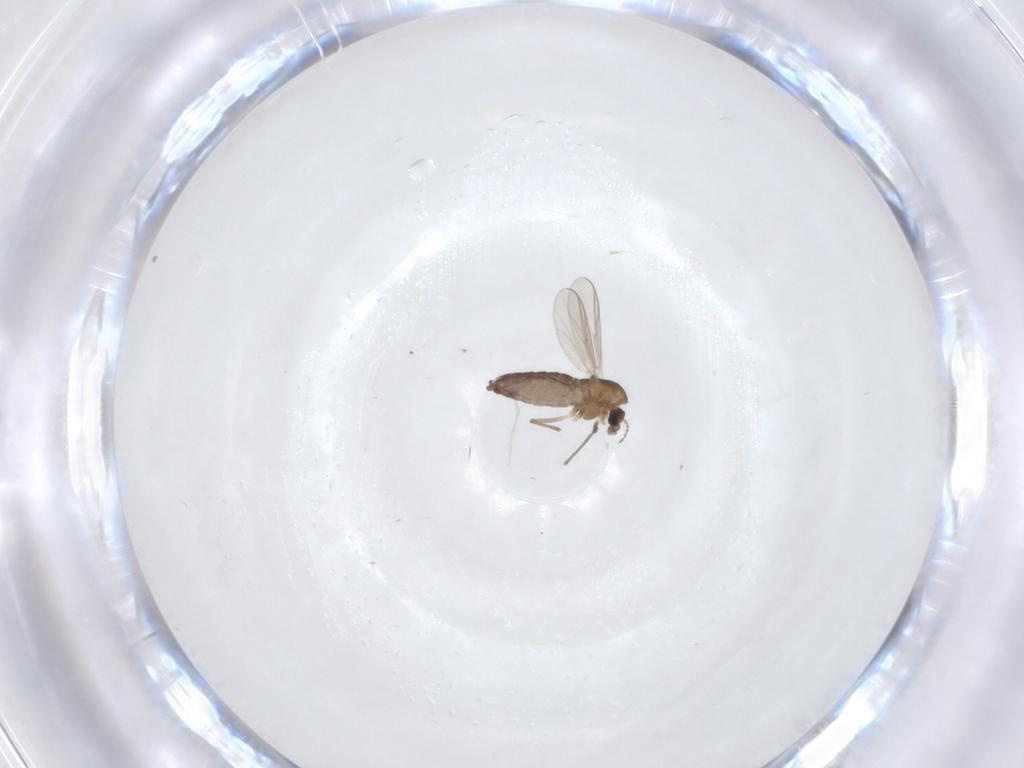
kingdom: Animalia
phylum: Arthropoda
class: Insecta
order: Diptera
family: Chironomidae
